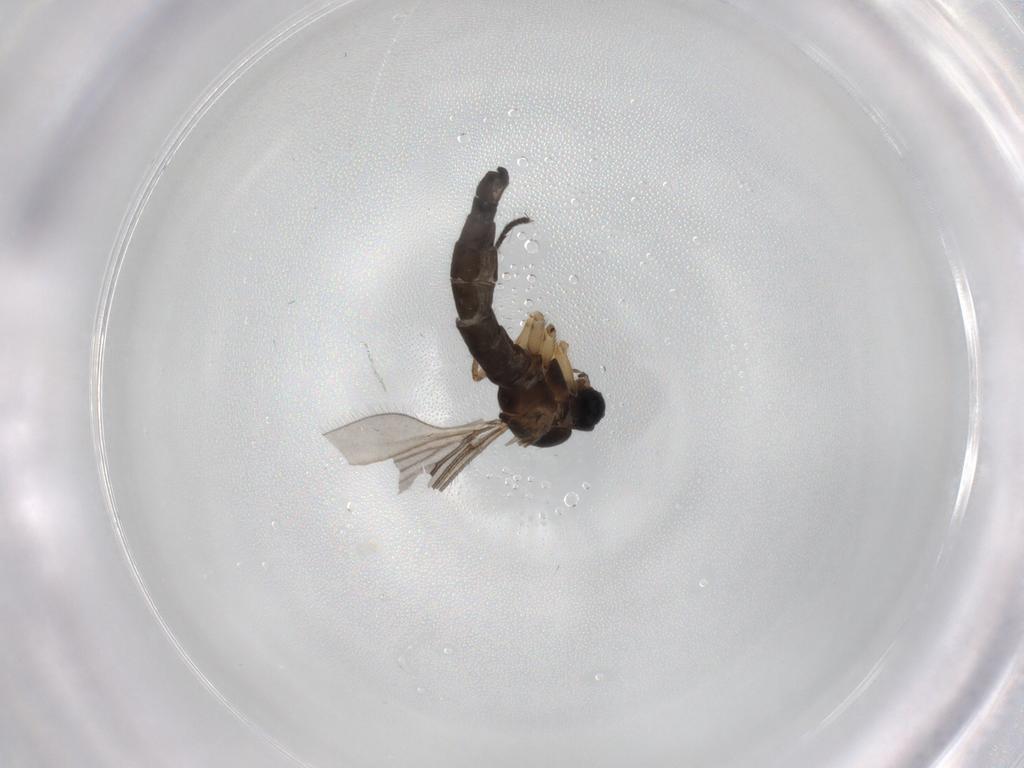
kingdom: Animalia
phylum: Arthropoda
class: Insecta
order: Diptera
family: Sciaridae
